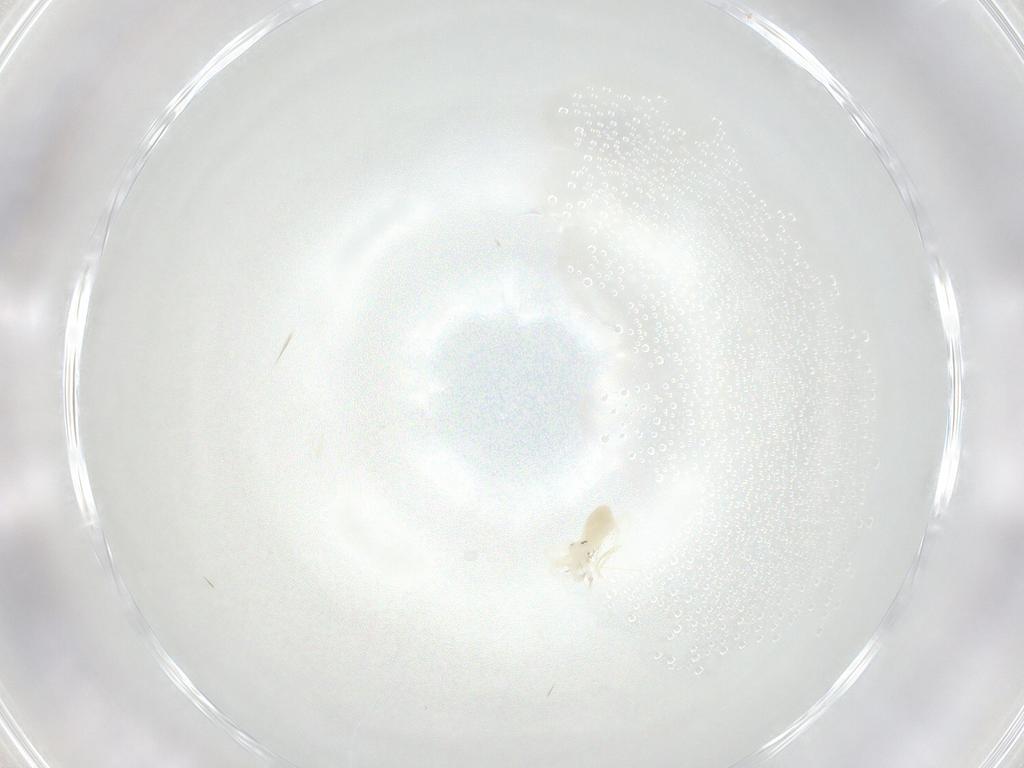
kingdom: Animalia
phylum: Arthropoda
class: Arachnida
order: Trombidiformes
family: Anystidae
